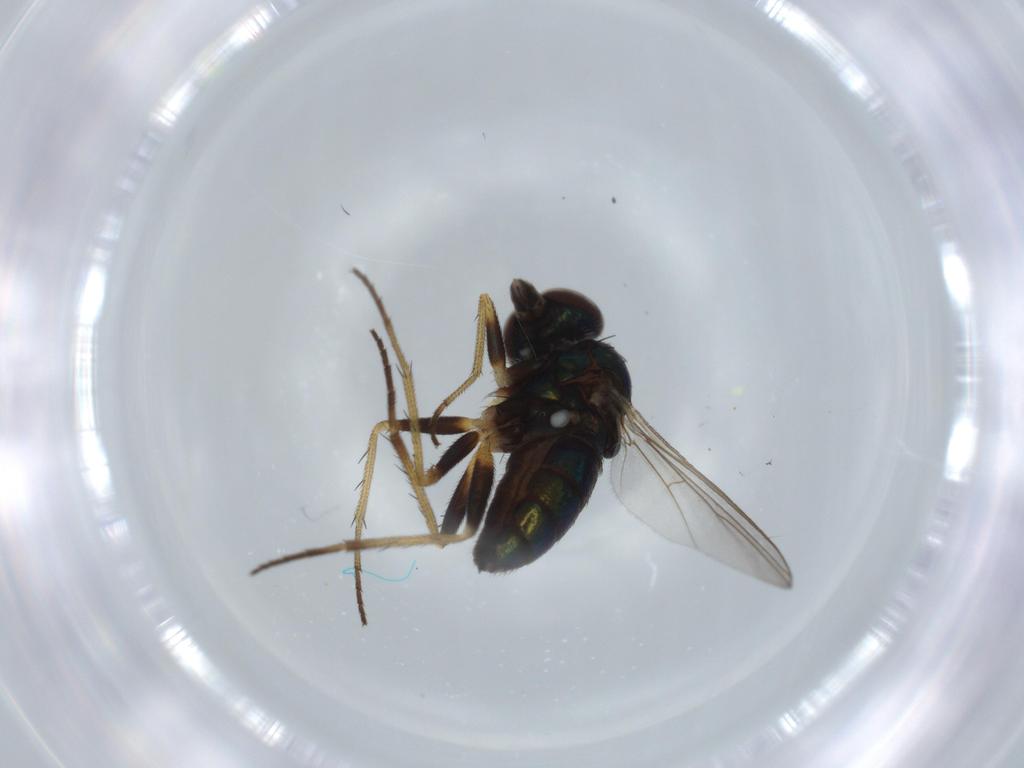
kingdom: Animalia
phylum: Arthropoda
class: Insecta
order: Diptera
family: Dolichopodidae
